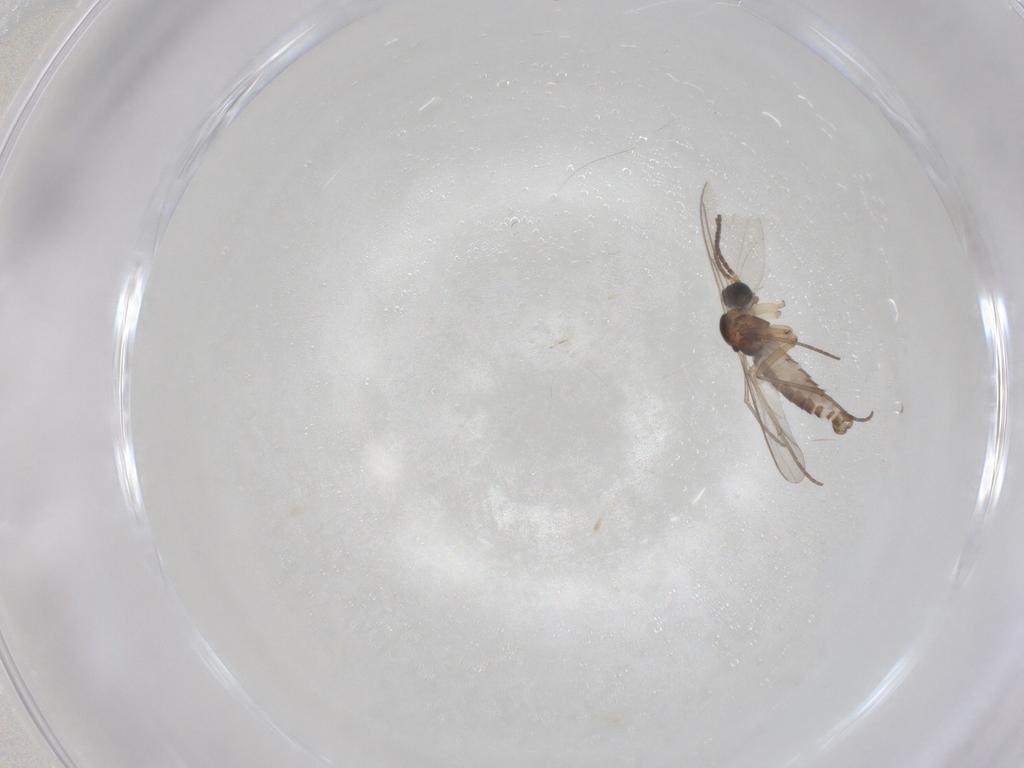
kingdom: Animalia
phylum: Arthropoda
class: Insecta
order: Diptera
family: Sciaridae
